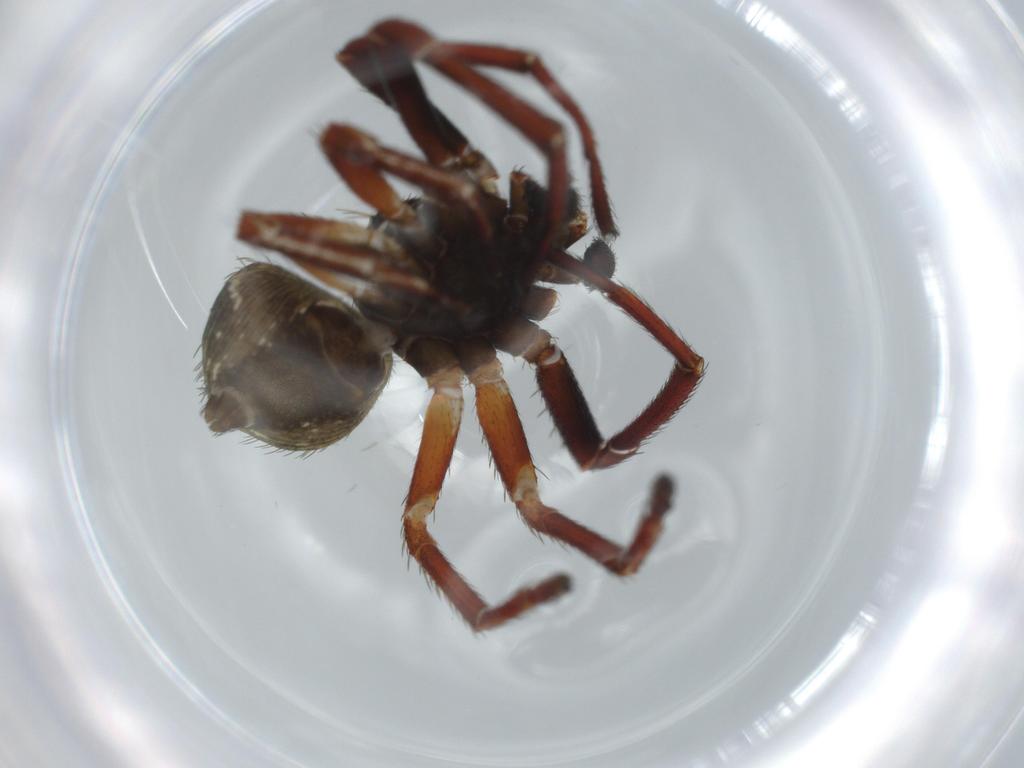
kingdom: Animalia
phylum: Arthropoda
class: Arachnida
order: Araneae
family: Thomisidae
